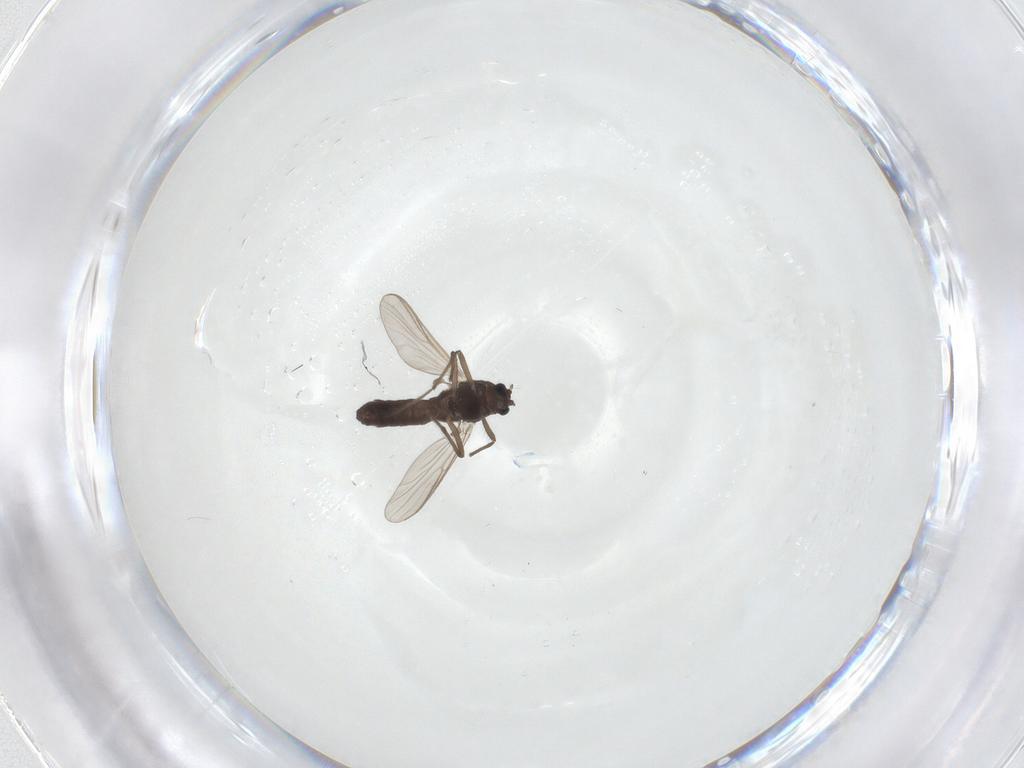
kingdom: Animalia
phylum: Arthropoda
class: Insecta
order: Diptera
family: Chironomidae
